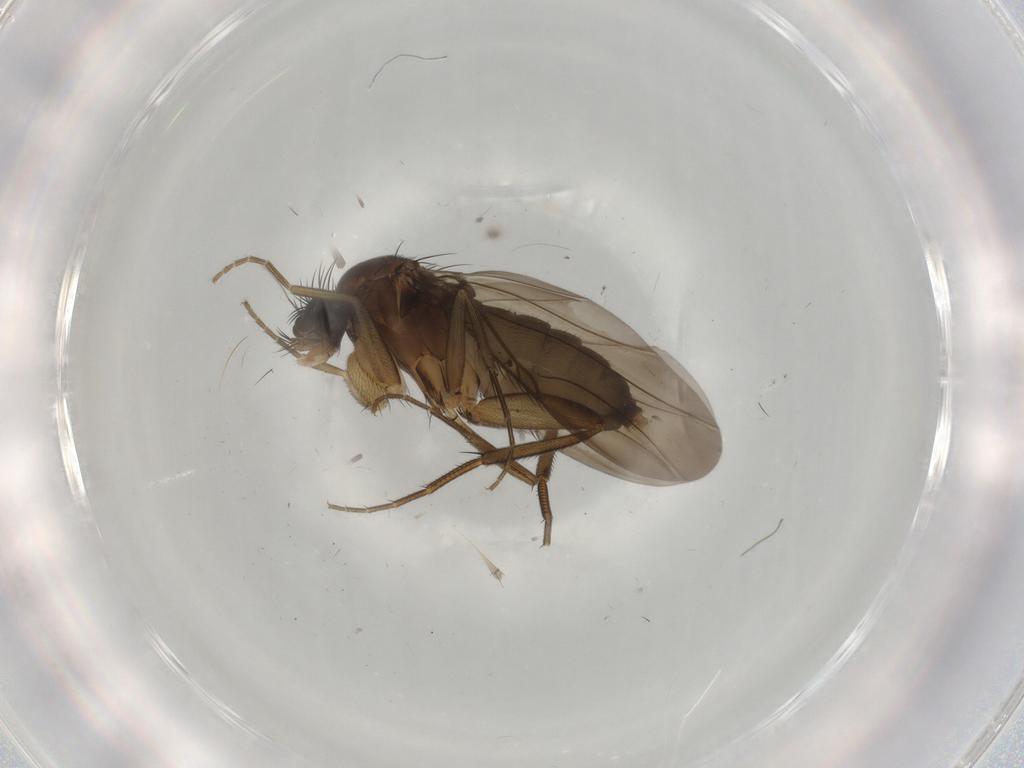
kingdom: Animalia
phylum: Arthropoda
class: Insecta
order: Diptera
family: Phoridae
